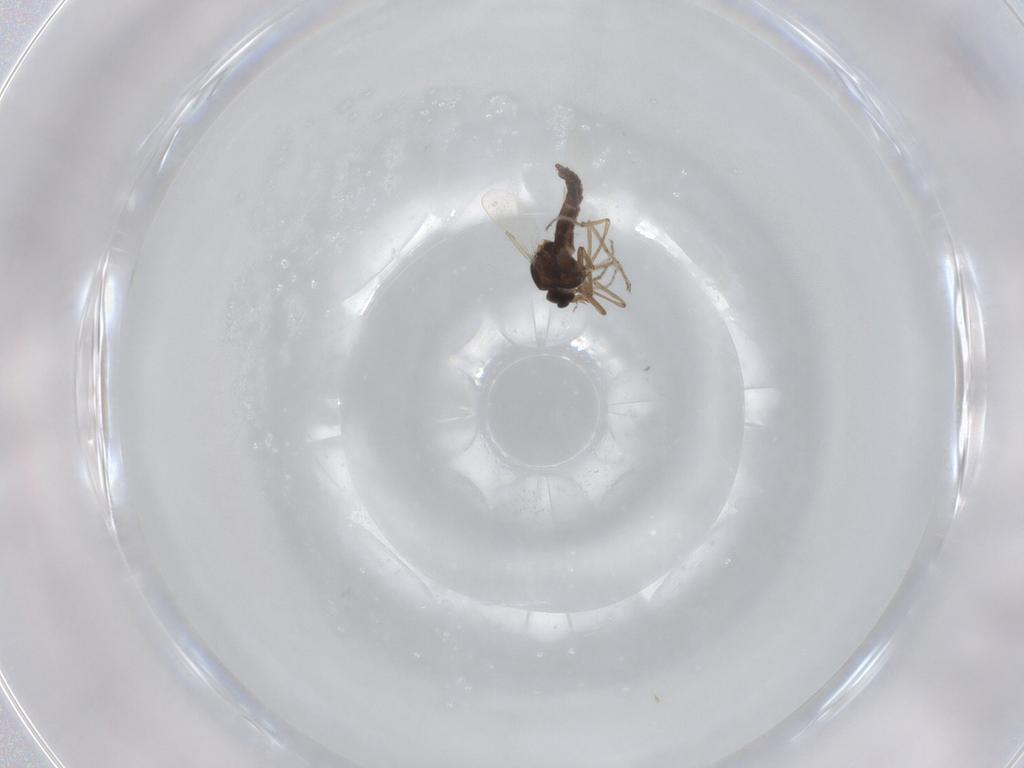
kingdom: Animalia
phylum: Arthropoda
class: Insecta
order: Diptera
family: Ceratopogonidae
